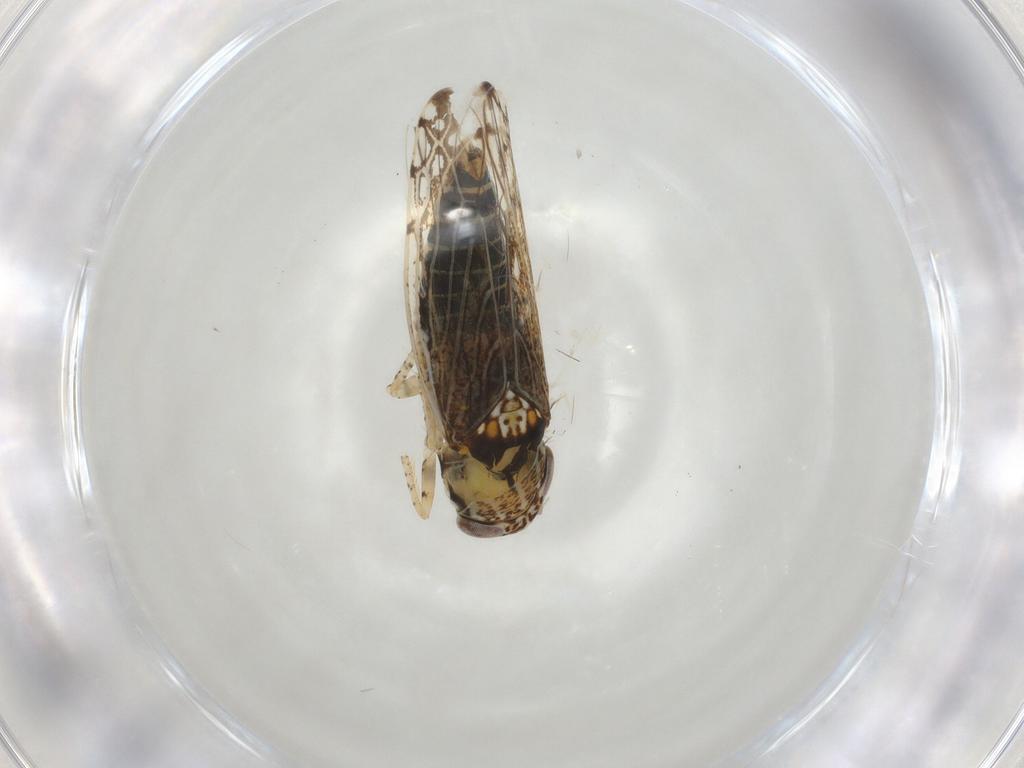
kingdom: Animalia
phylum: Arthropoda
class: Insecta
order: Hemiptera
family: Cicadellidae
